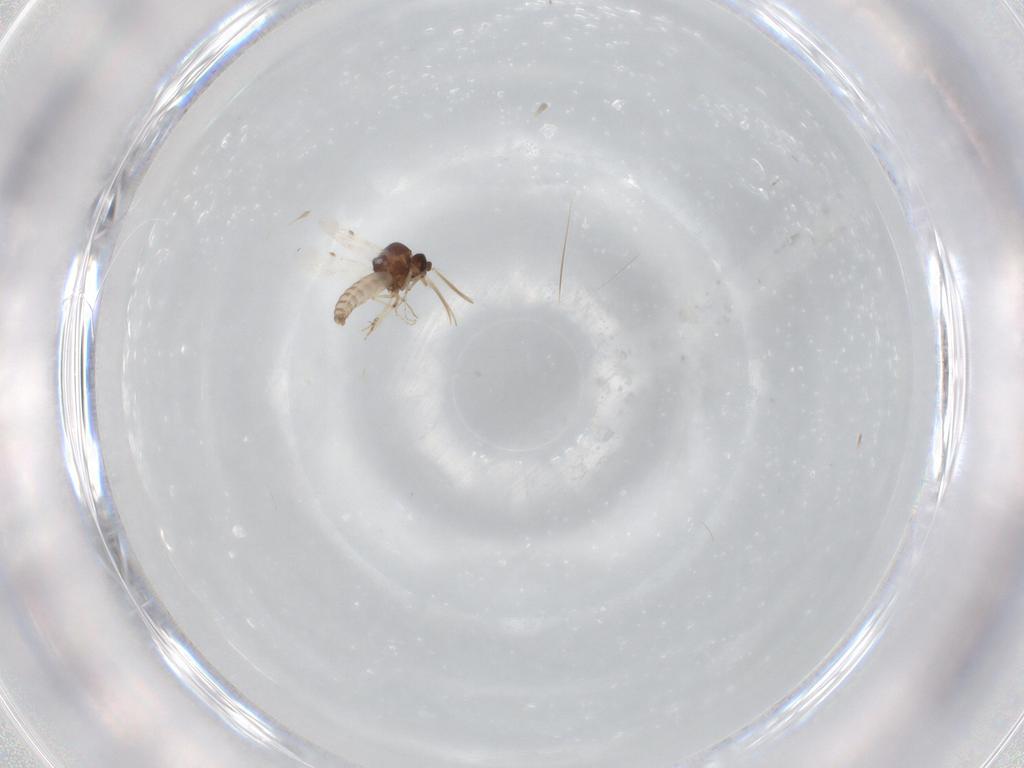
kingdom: Animalia
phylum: Arthropoda
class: Insecta
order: Diptera
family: Ceratopogonidae
